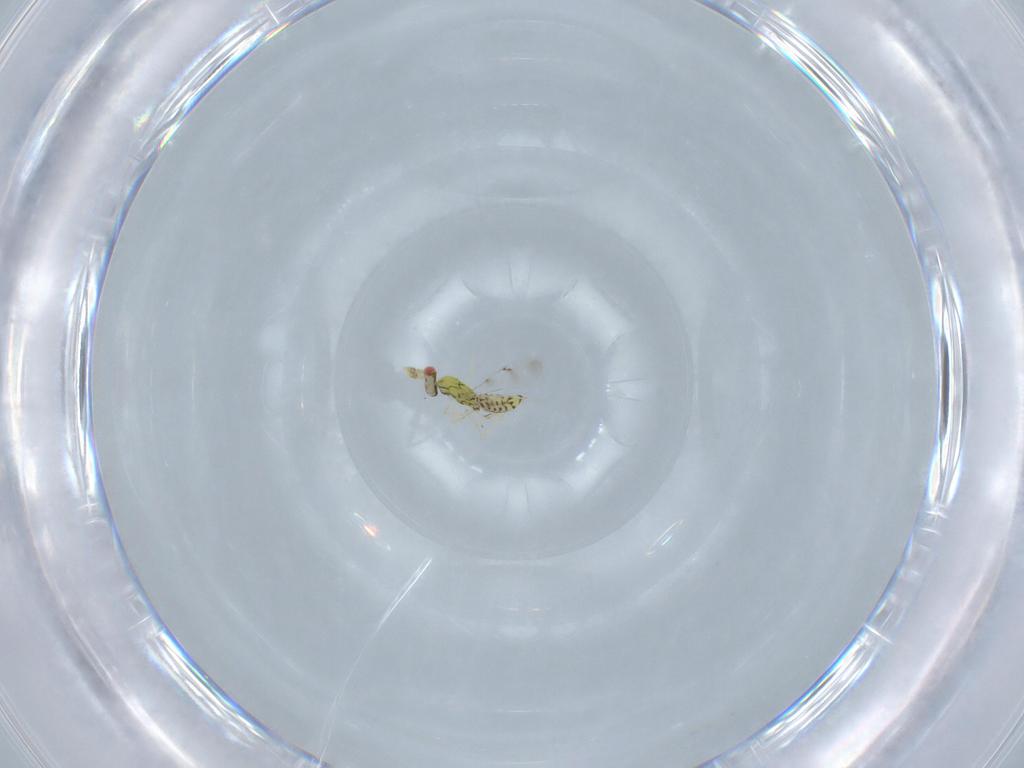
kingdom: Animalia
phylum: Arthropoda
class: Insecta
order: Hymenoptera
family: Eulophidae
